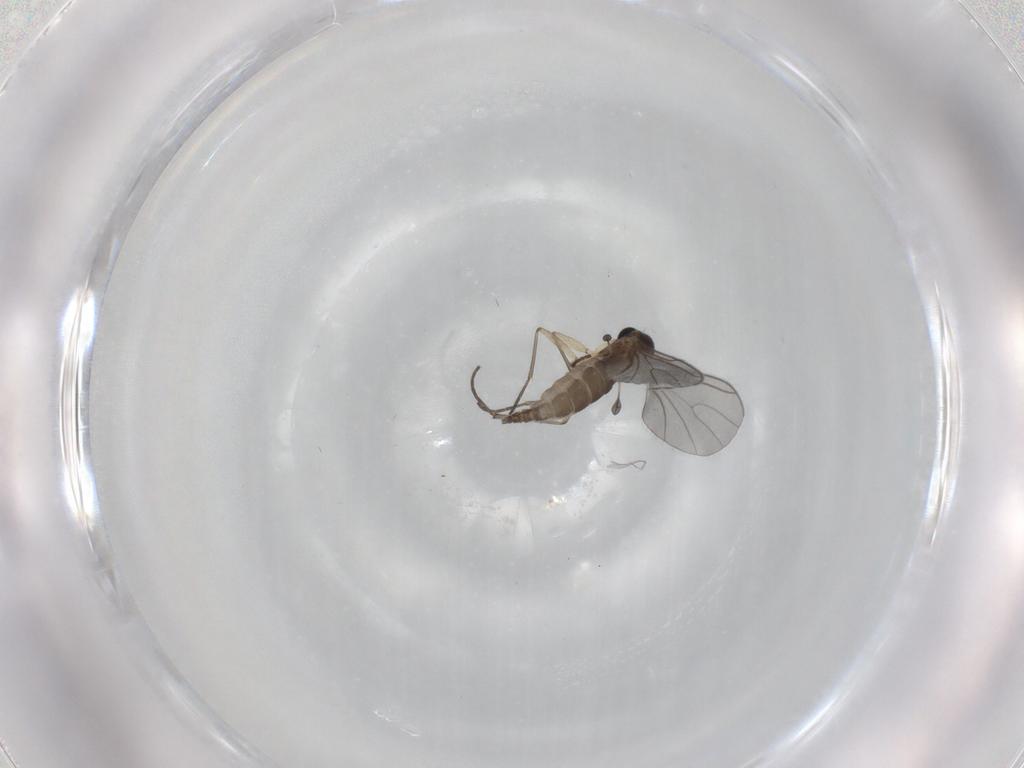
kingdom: Animalia
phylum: Arthropoda
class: Insecta
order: Diptera
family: Sciaridae
